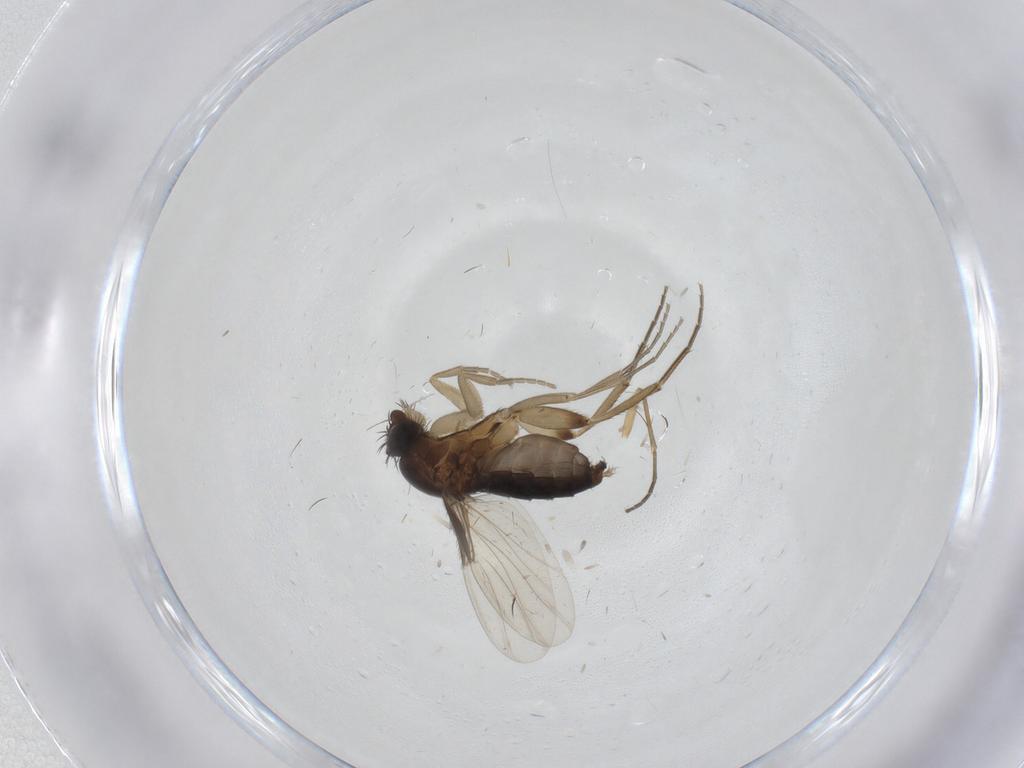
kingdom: Animalia
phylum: Arthropoda
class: Insecta
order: Diptera
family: Phoridae
